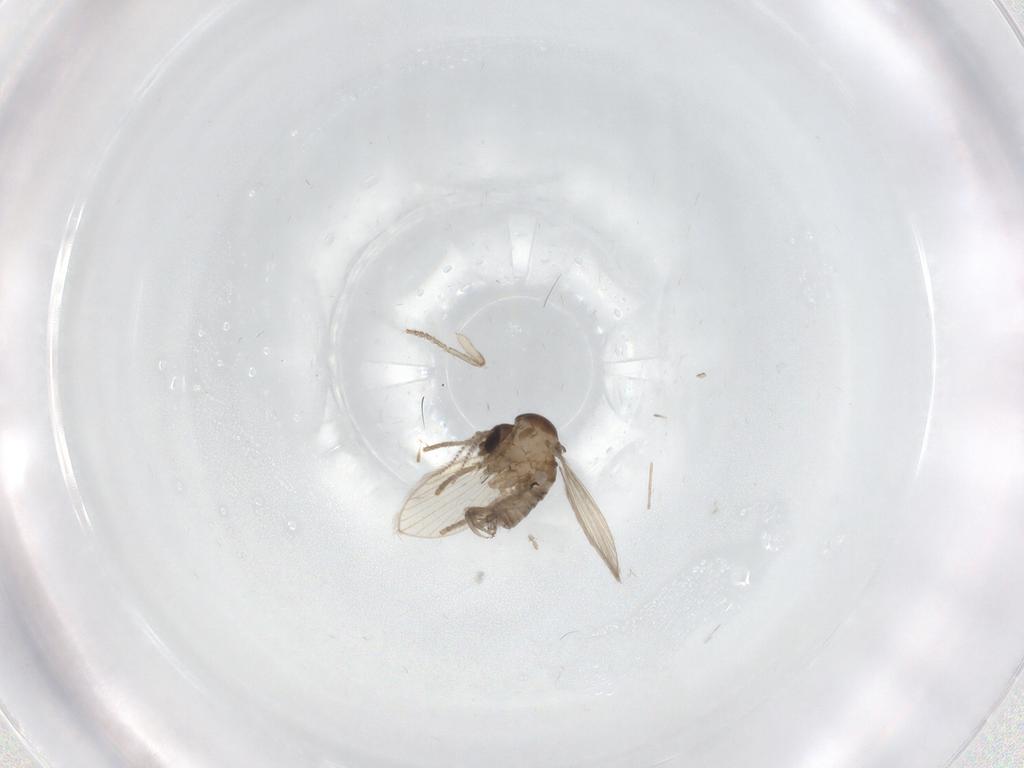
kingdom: Animalia
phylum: Arthropoda
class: Insecta
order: Diptera
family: Psychodidae
